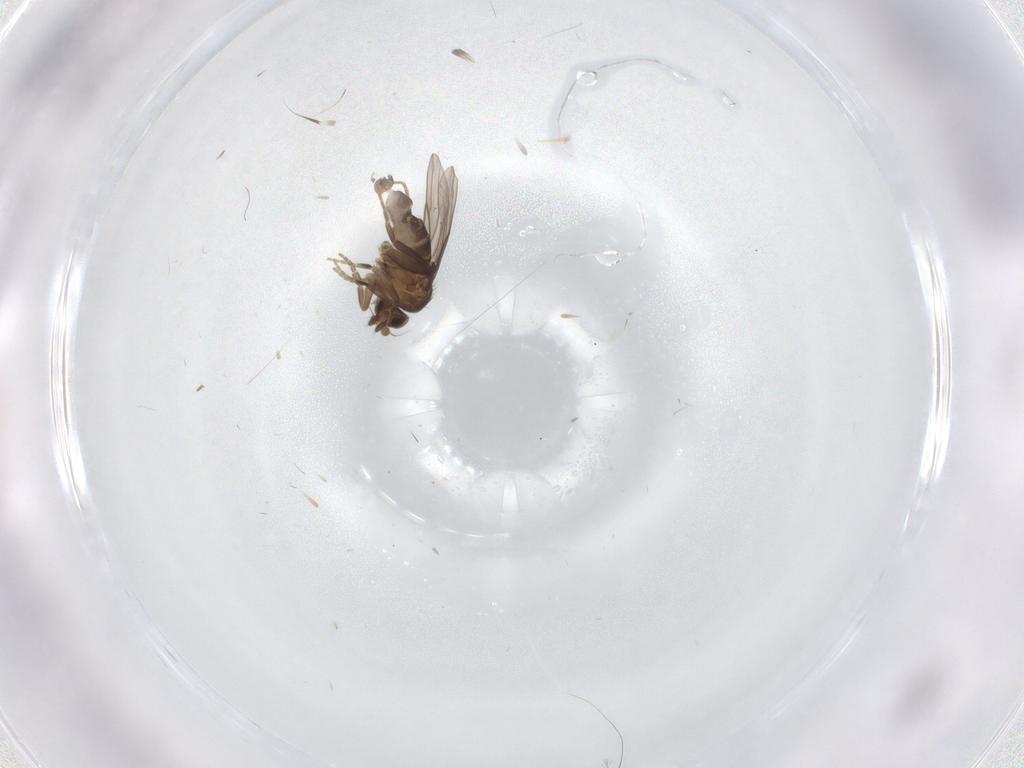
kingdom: Animalia
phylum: Arthropoda
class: Insecta
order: Diptera
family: Phoridae
